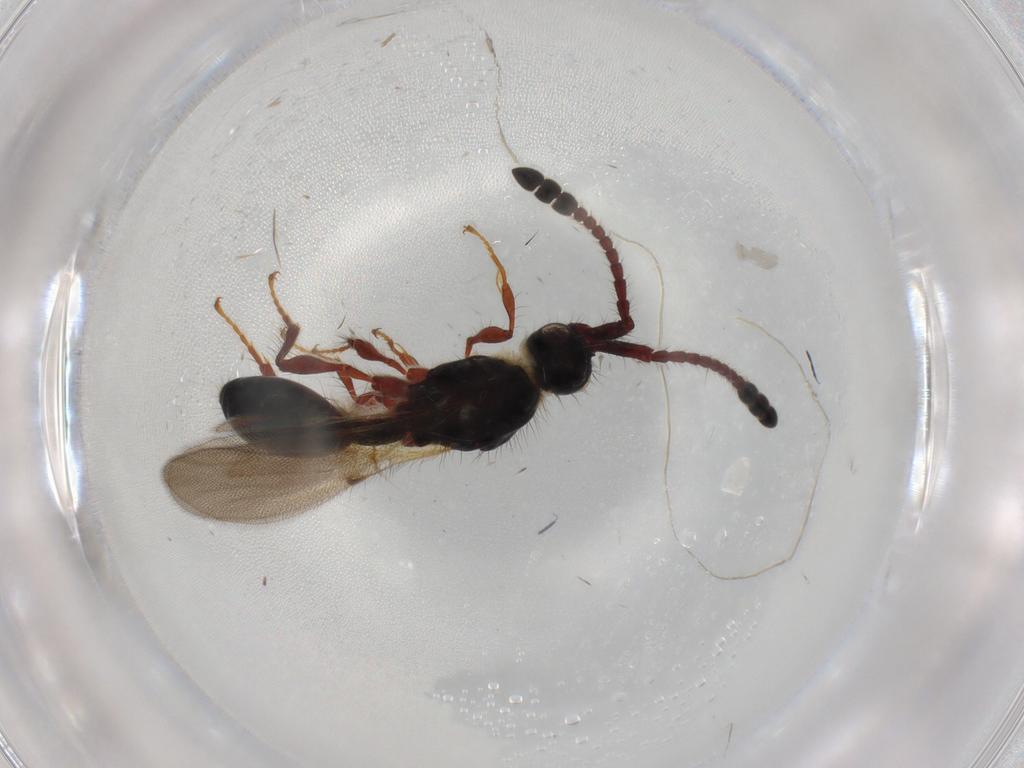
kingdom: Animalia
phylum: Arthropoda
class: Insecta
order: Hymenoptera
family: Diapriidae
